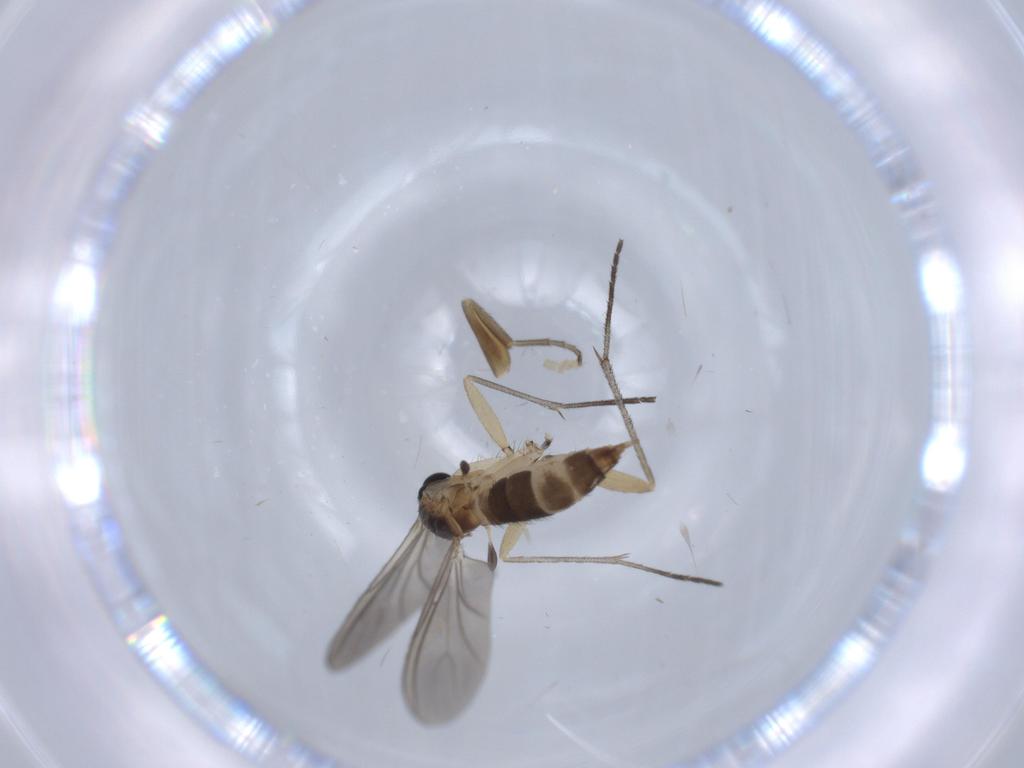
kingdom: Animalia
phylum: Arthropoda
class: Insecta
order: Diptera
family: Sciaridae
